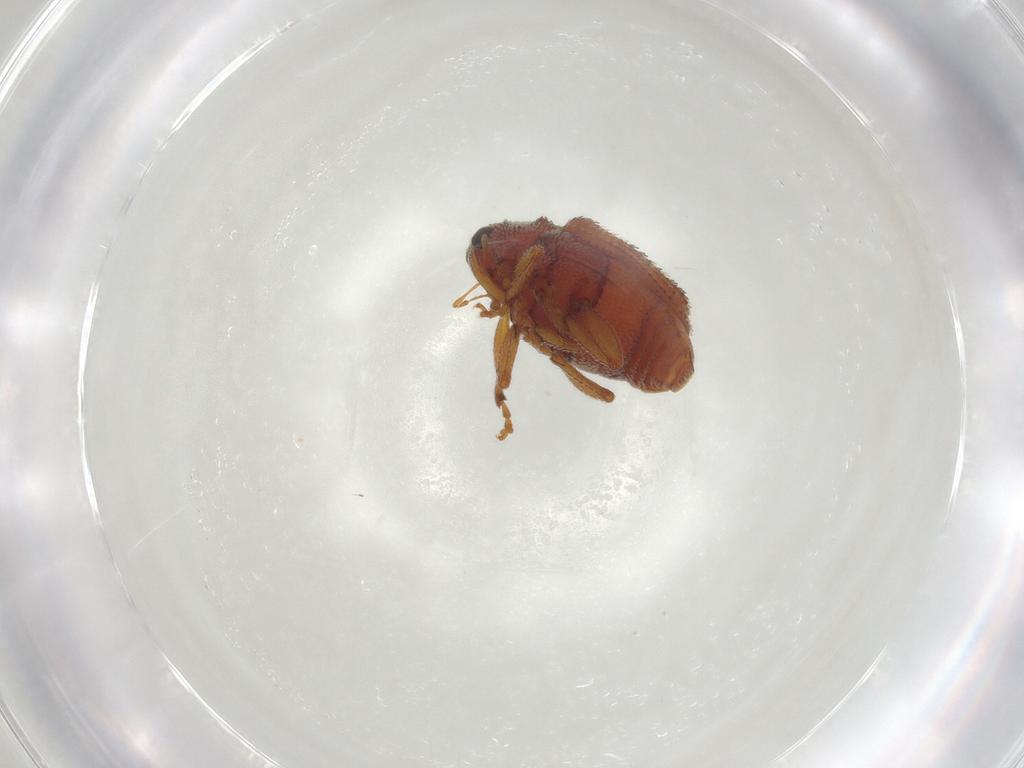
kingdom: Animalia
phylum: Arthropoda
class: Insecta
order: Coleoptera
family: Curculionidae
